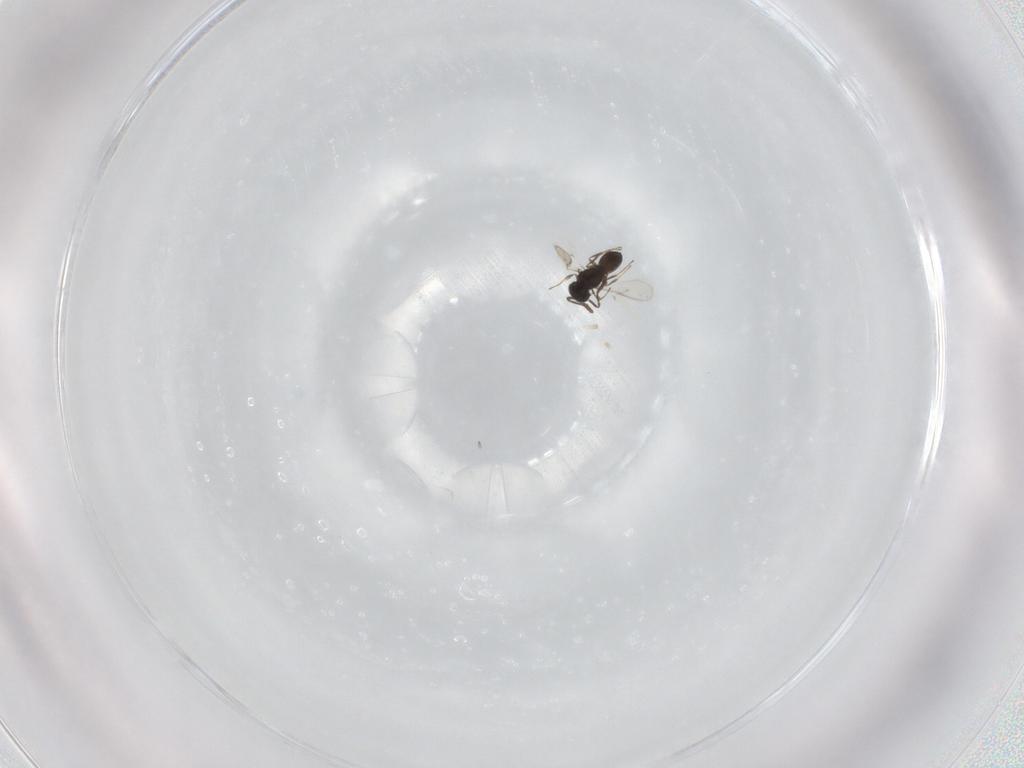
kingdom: Animalia
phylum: Arthropoda
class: Insecta
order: Hymenoptera
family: Scelionidae
